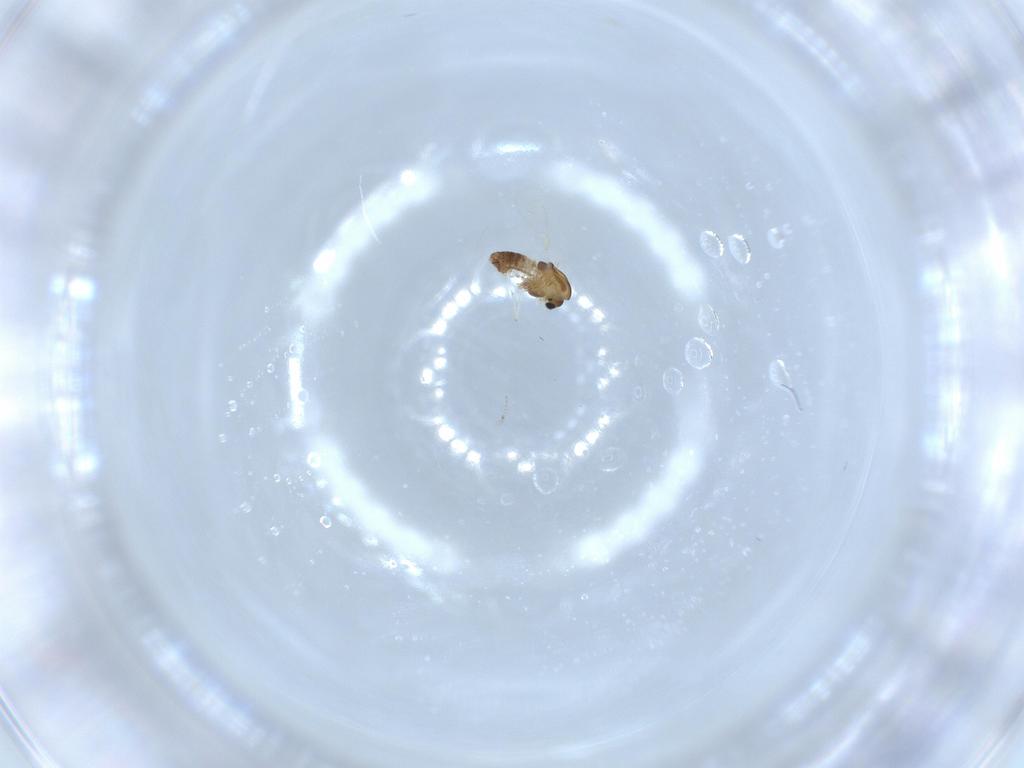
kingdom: Animalia
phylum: Arthropoda
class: Insecta
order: Diptera
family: Chironomidae
